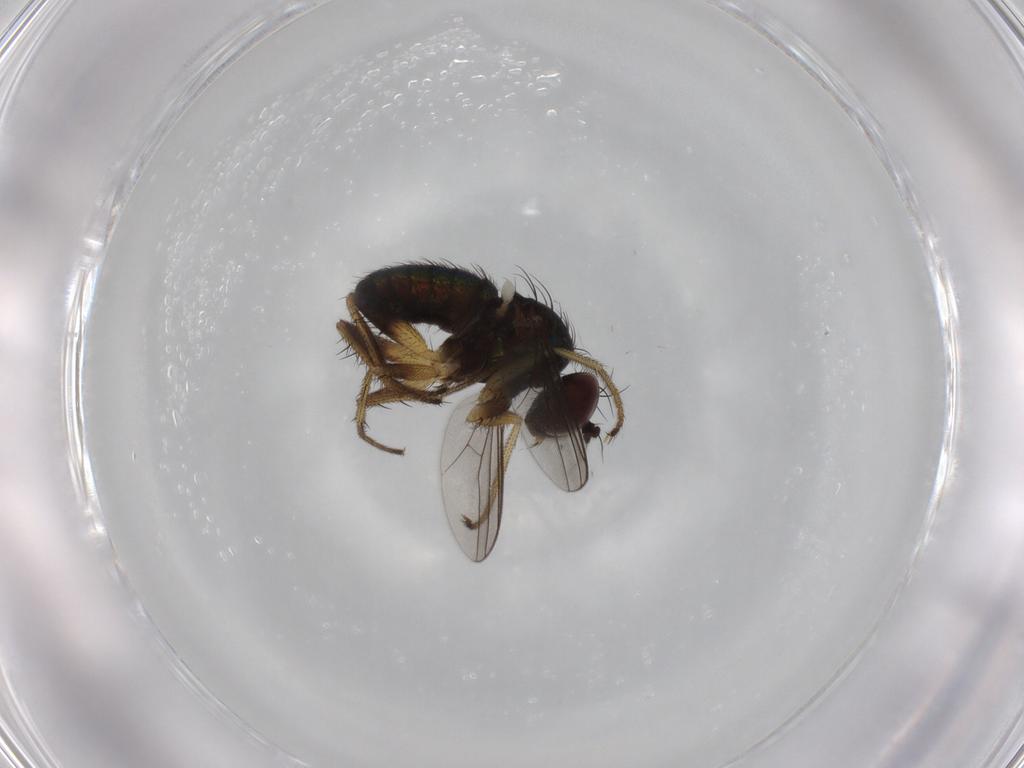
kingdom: Animalia
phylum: Arthropoda
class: Insecta
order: Diptera
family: Dolichopodidae
